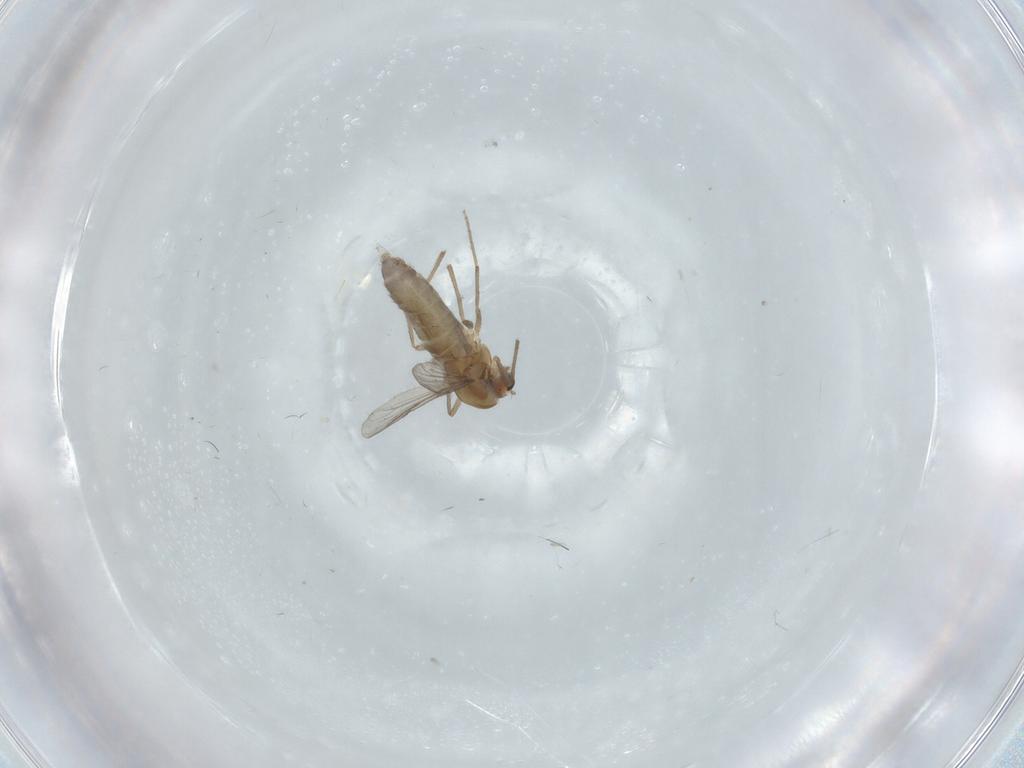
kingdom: Animalia
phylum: Arthropoda
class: Insecta
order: Diptera
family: Chironomidae
